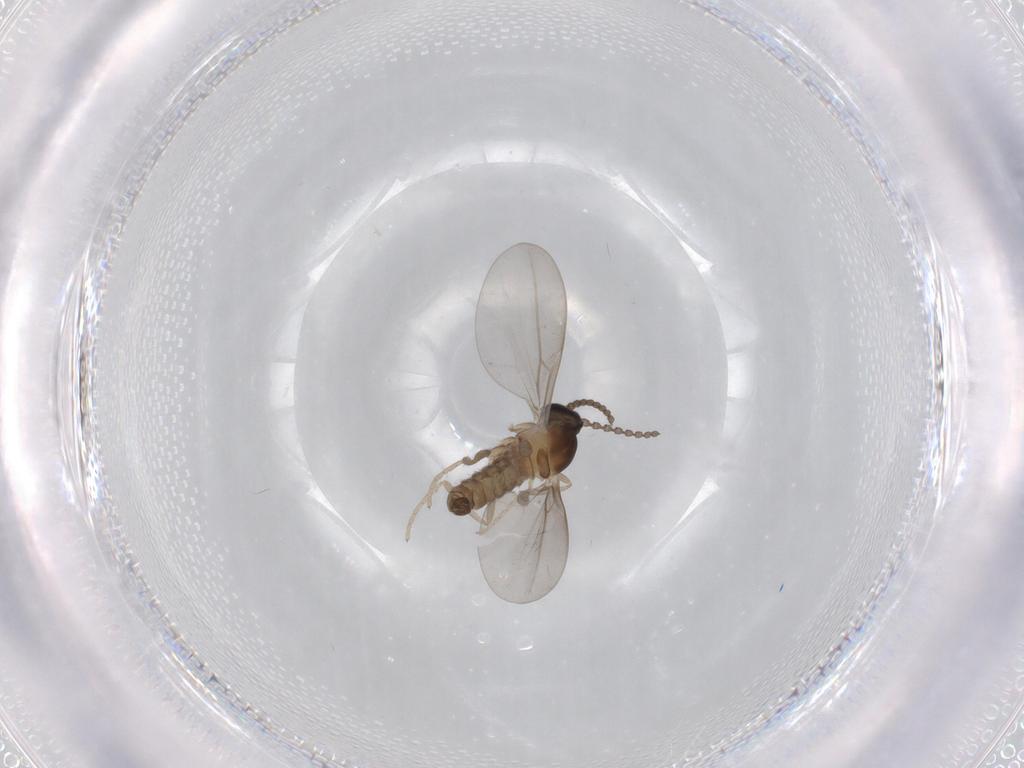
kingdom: Animalia
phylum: Arthropoda
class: Insecta
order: Diptera
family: Cecidomyiidae
